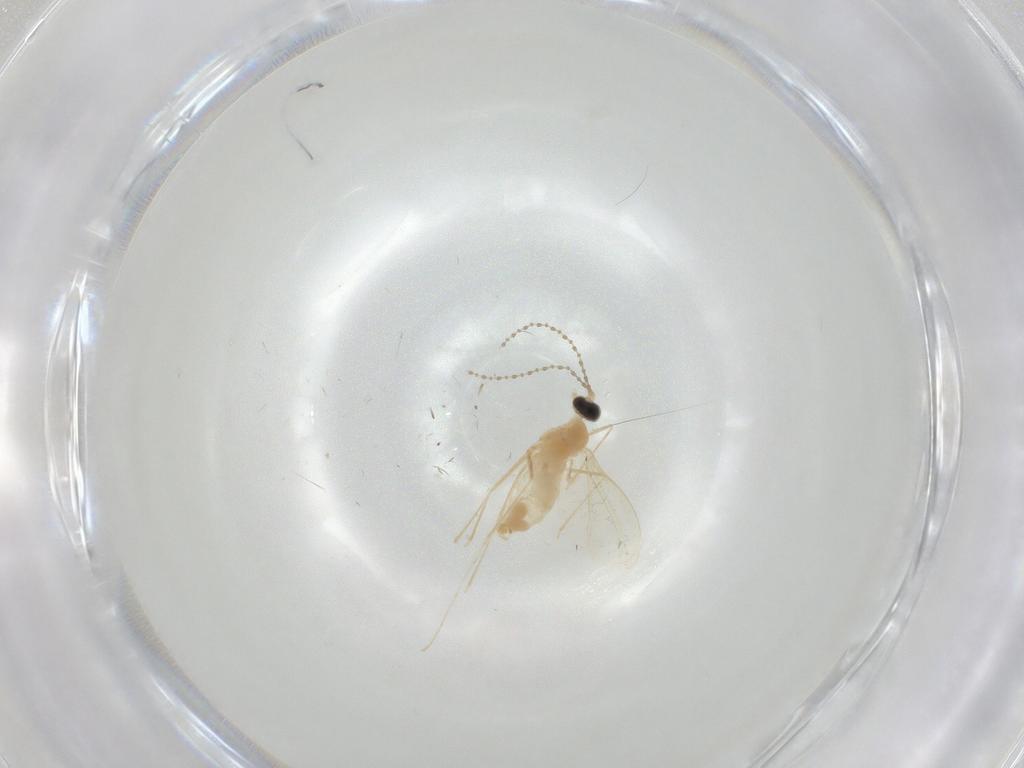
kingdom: Animalia
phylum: Arthropoda
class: Insecta
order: Diptera
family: Cecidomyiidae
